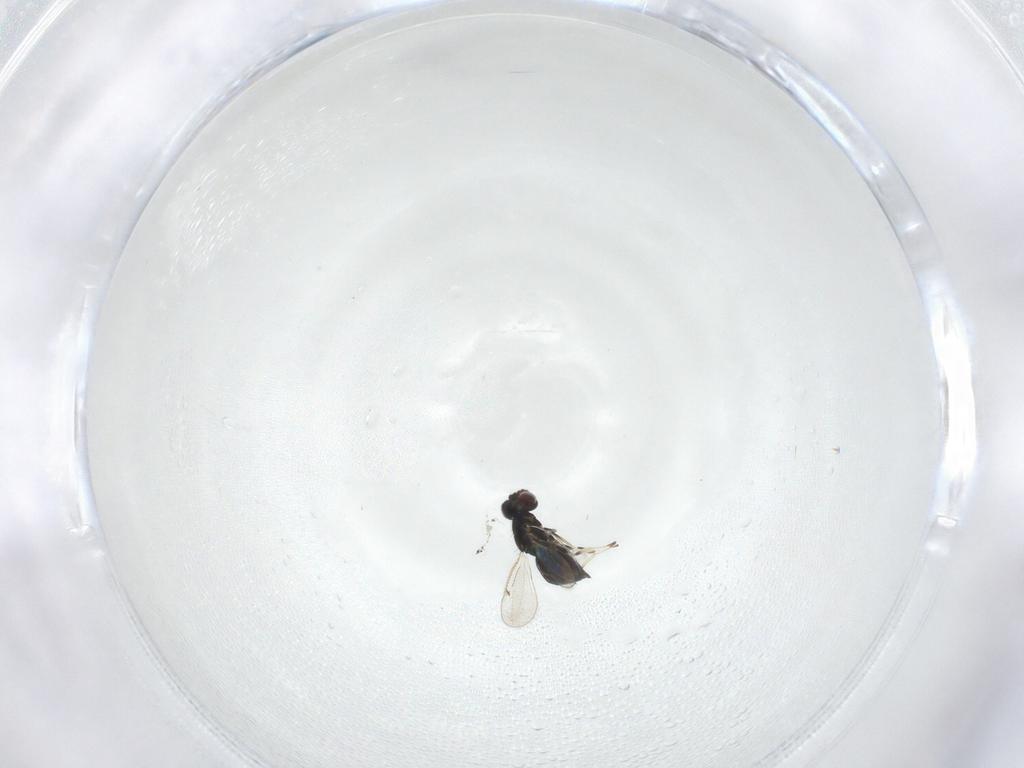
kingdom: Animalia
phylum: Arthropoda
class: Insecta
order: Hymenoptera
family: Eulophidae
